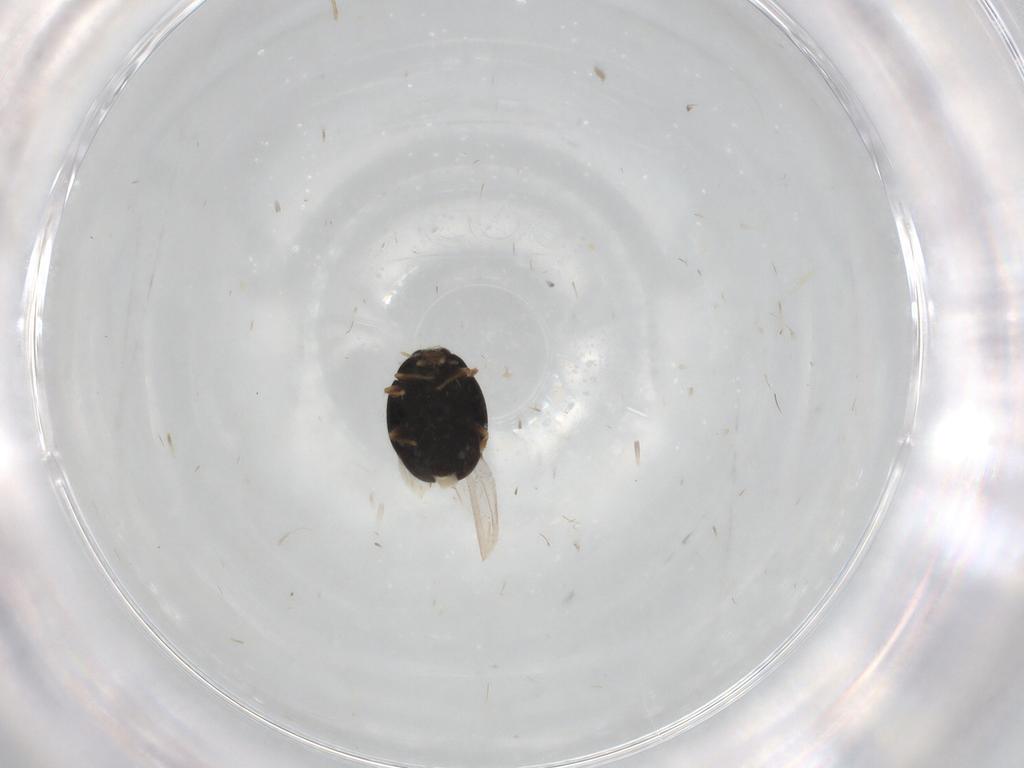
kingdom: Animalia
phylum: Arthropoda
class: Insecta
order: Coleoptera
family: Aderidae
